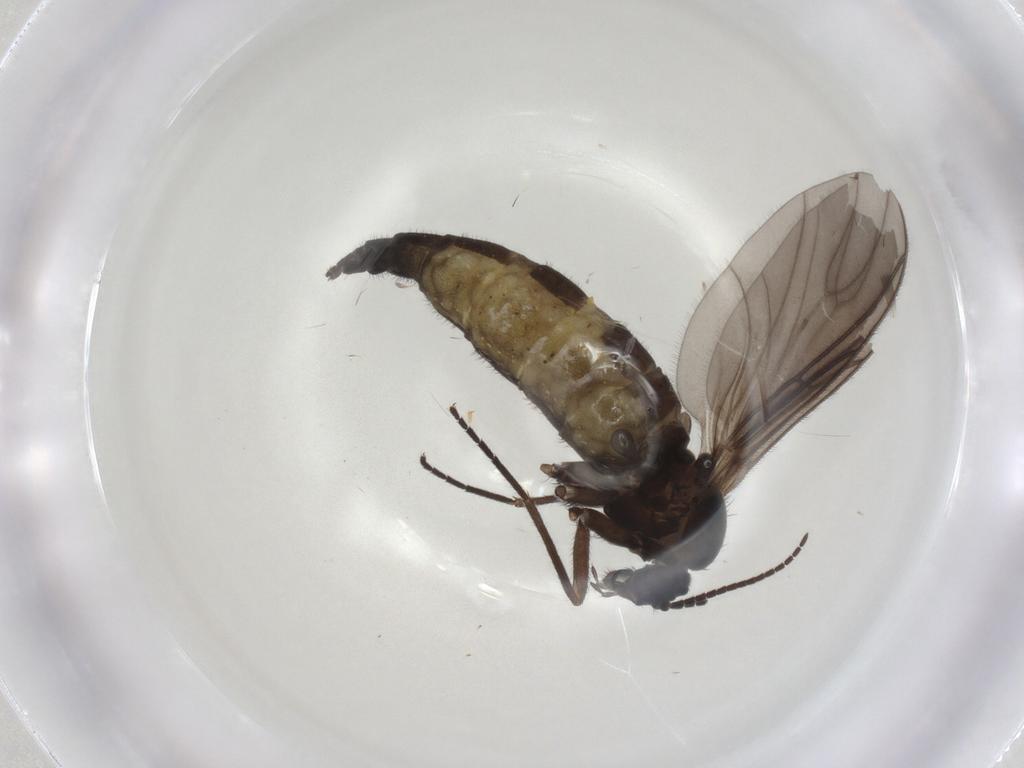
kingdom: Animalia
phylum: Arthropoda
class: Insecta
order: Diptera
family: Sciaridae
